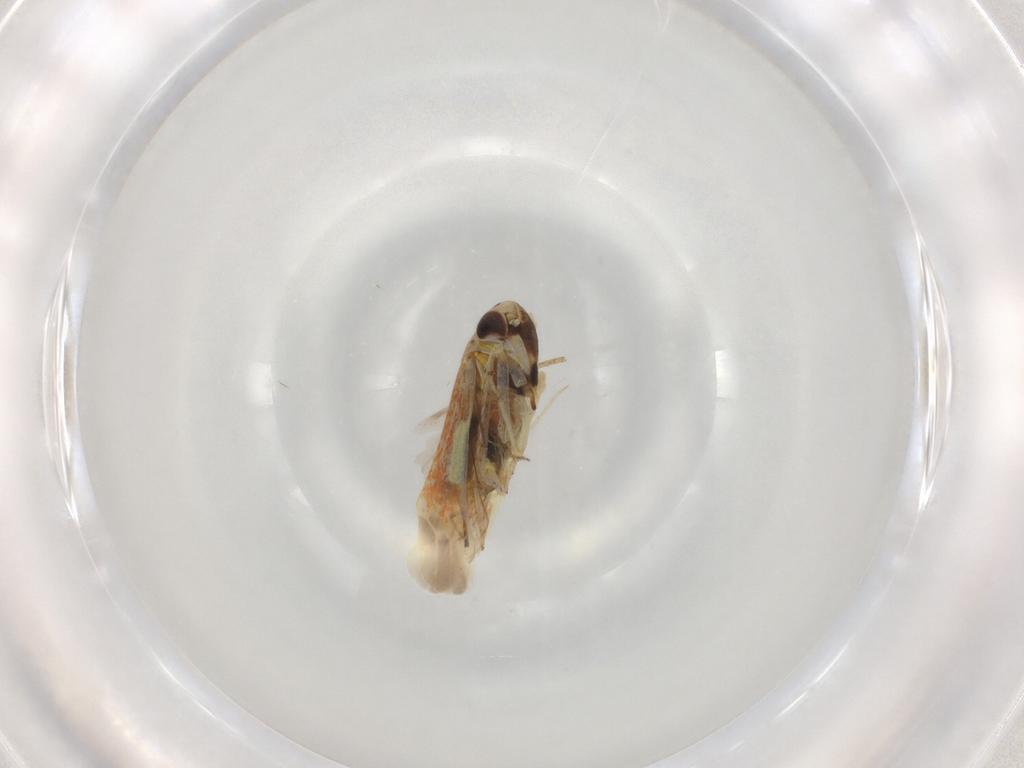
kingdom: Animalia
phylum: Arthropoda
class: Insecta
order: Hemiptera
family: Cicadellidae
